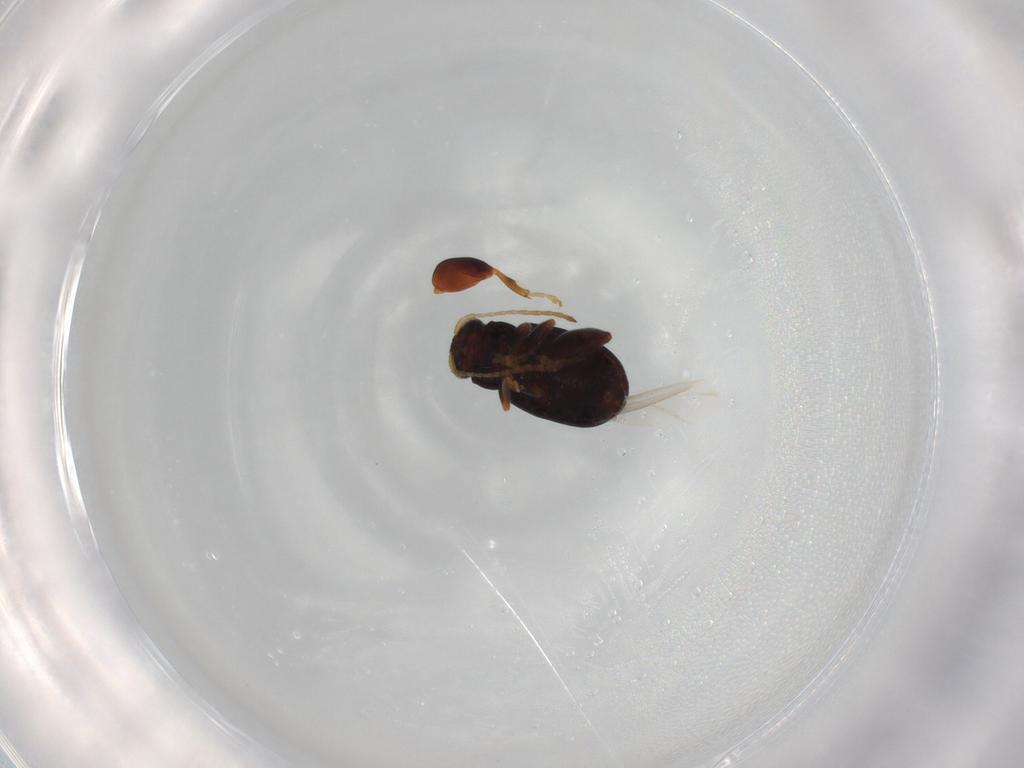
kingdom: Animalia
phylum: Arthropoda
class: Insecta
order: Coleoptera
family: Chrysomelidae
